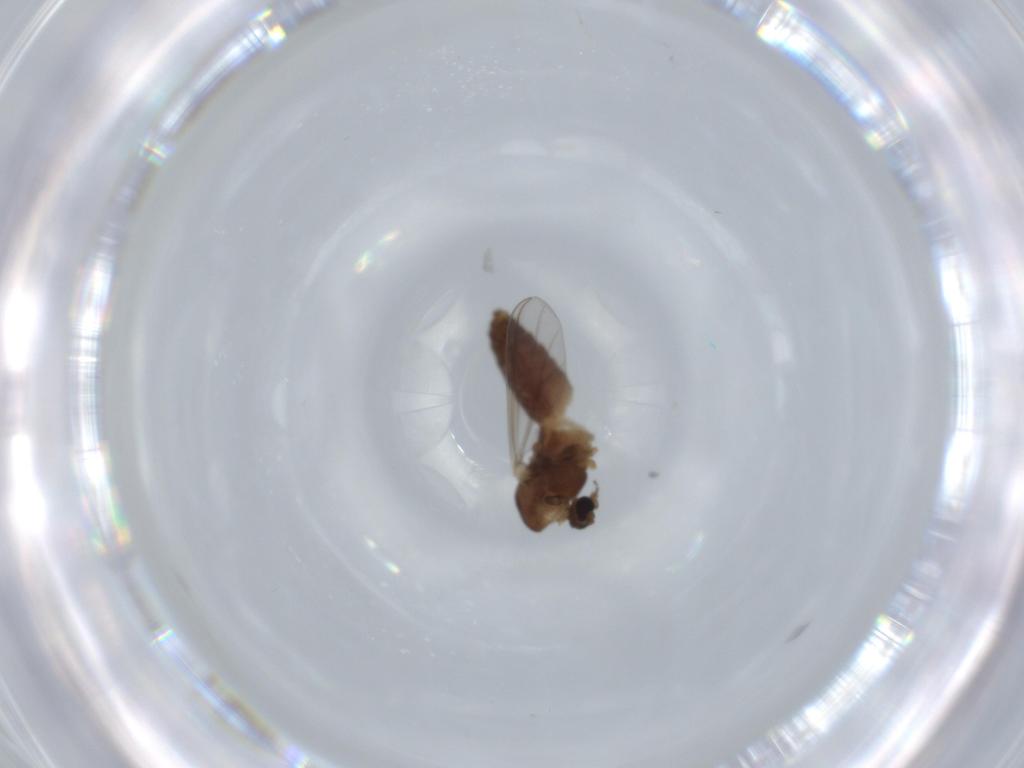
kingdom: Animalia
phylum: Arthropoda
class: Insecta
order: Diptera
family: Chironomidae
